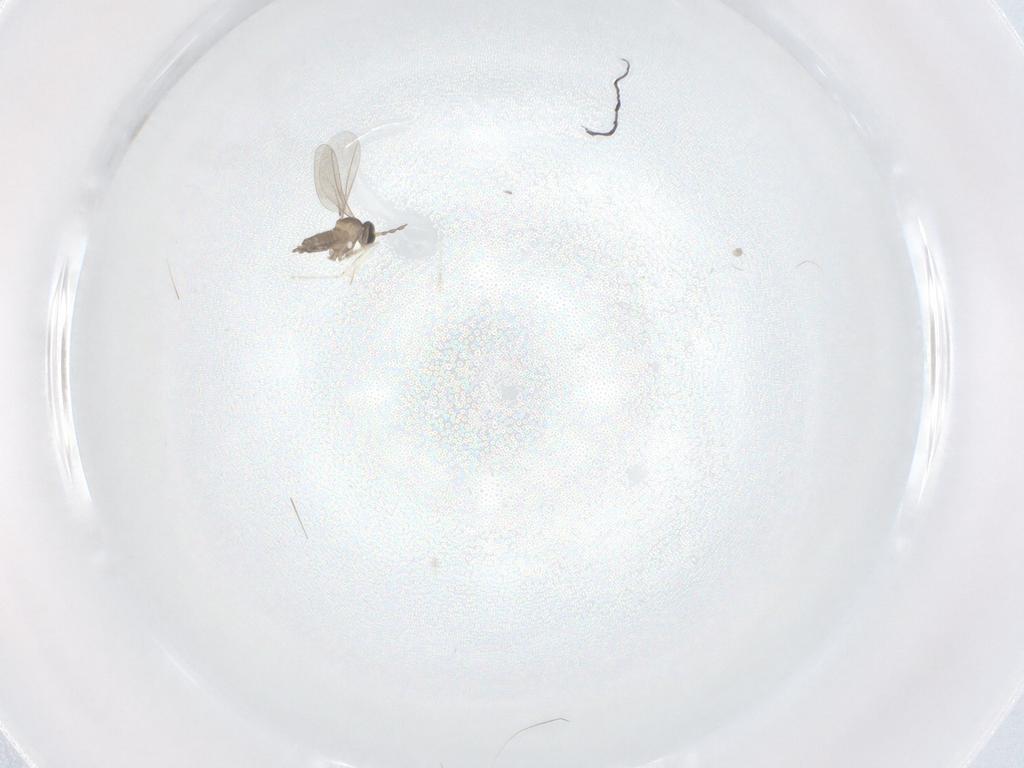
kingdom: Animalia
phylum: Arthropoda
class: Insecta
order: Diptera
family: Cecidomyiidae
